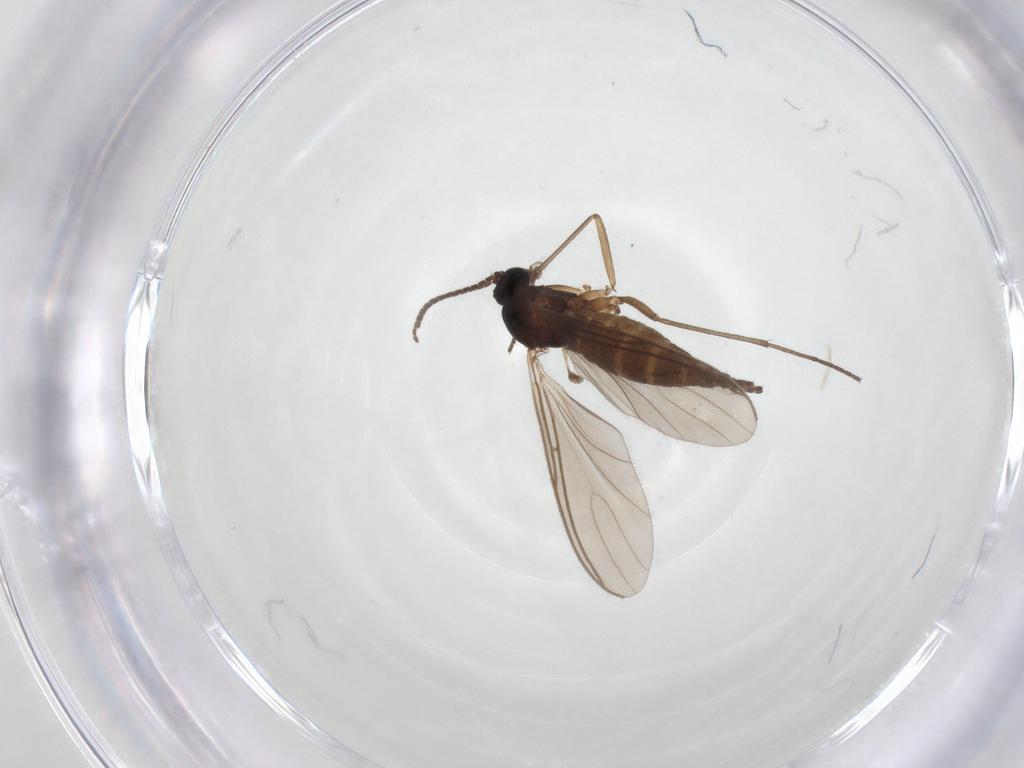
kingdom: Animalia
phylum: Arthropoda
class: Insecta
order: Diptera
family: Sciaridae
